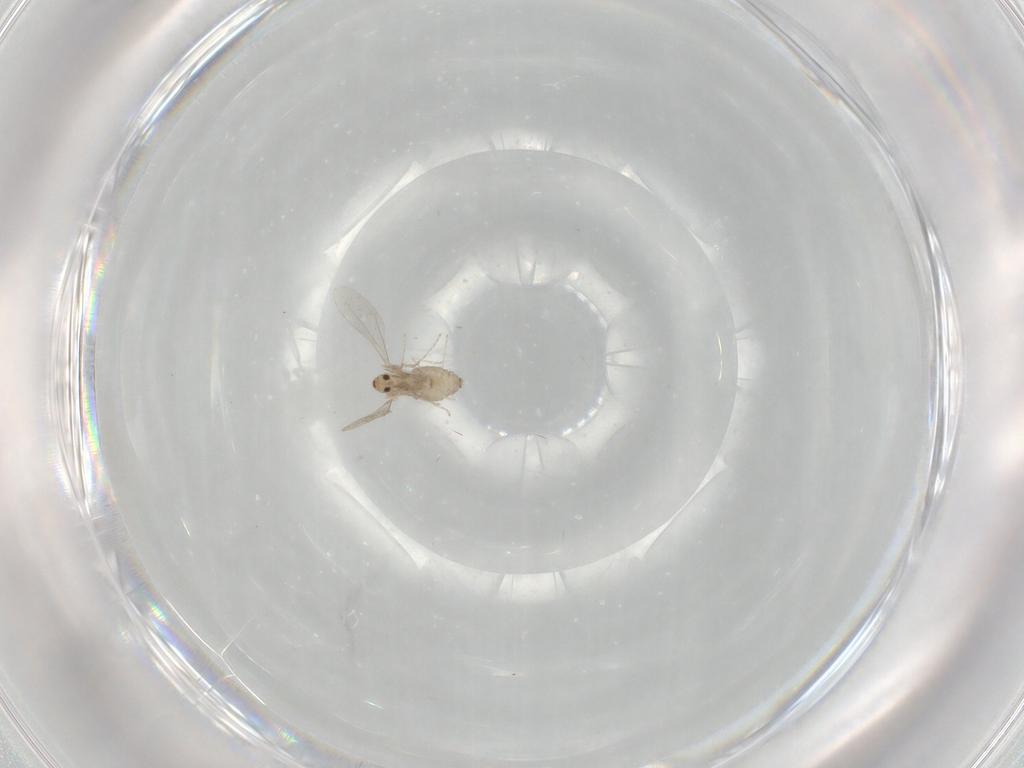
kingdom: Animalia
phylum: Arthropoda
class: Insecta
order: Diptera
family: Cecidomyiidae
